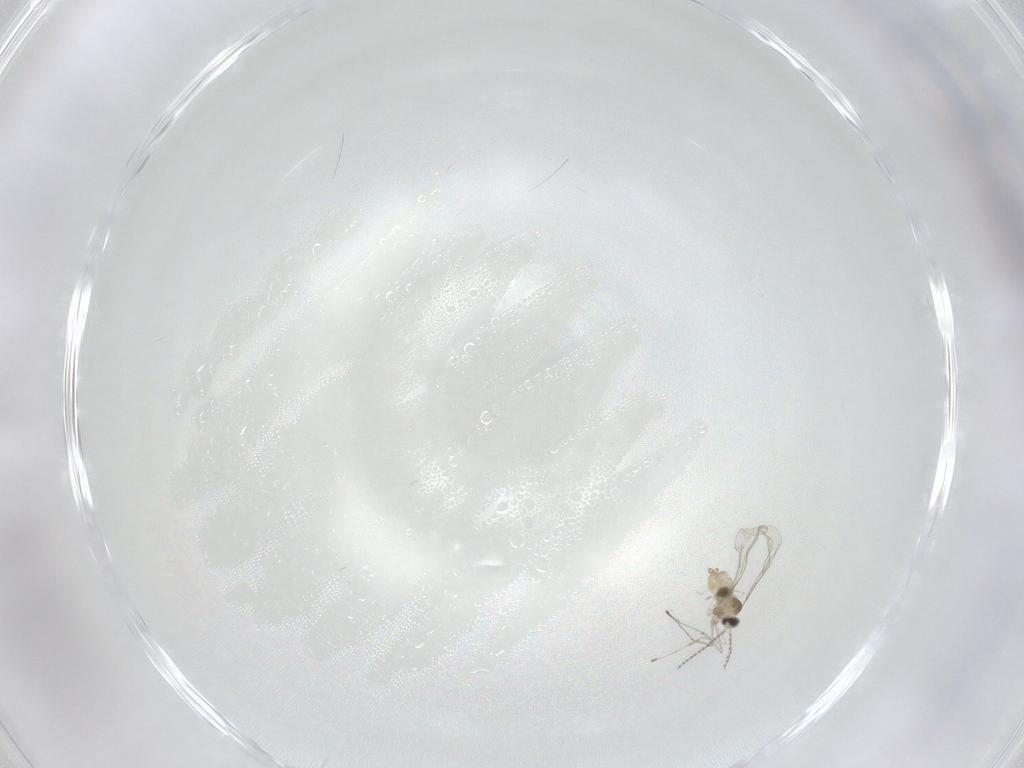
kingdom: Animalia
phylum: Arthropoda
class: Insecta
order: Diptera
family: Cecidomyiidae
